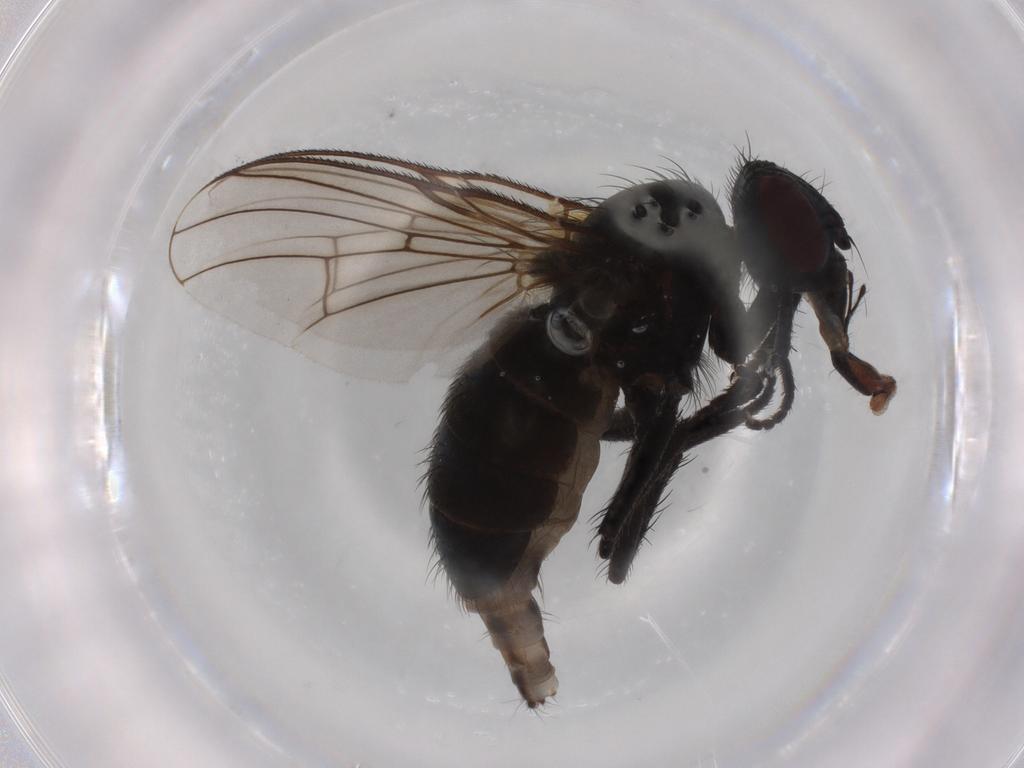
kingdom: Animalia
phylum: Arthropoda
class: Insecta
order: Diptera
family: Muscidae
